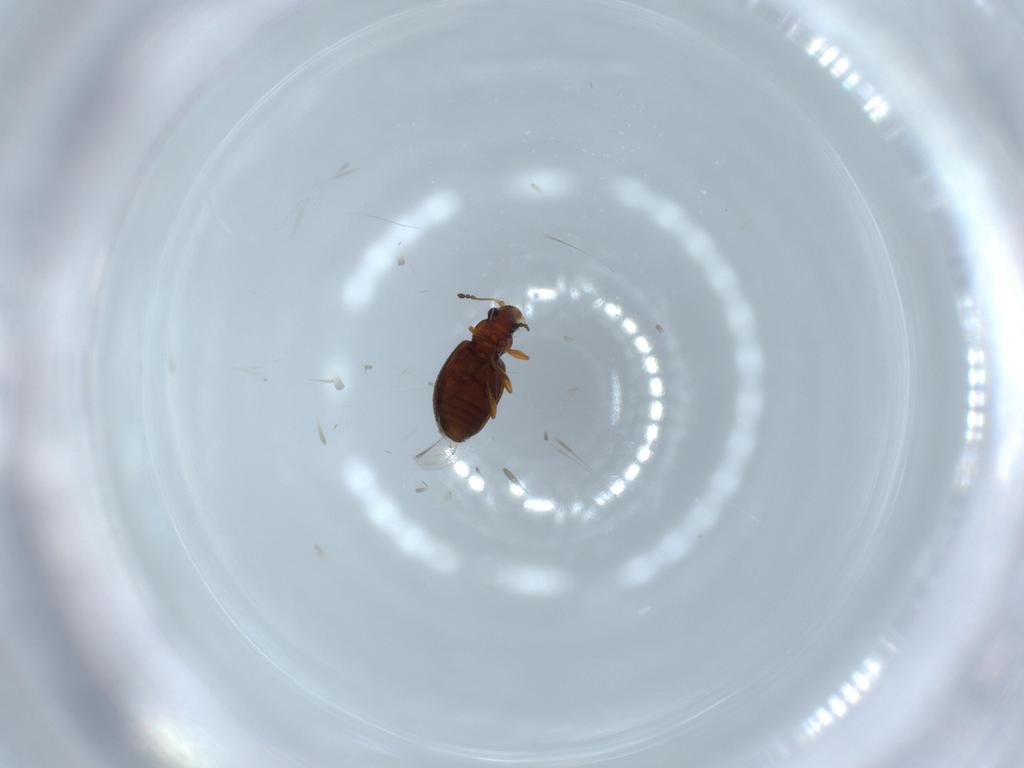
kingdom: Animalia
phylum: Arthropoda
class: Insecta
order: Coleoptera
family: Latridiidae
